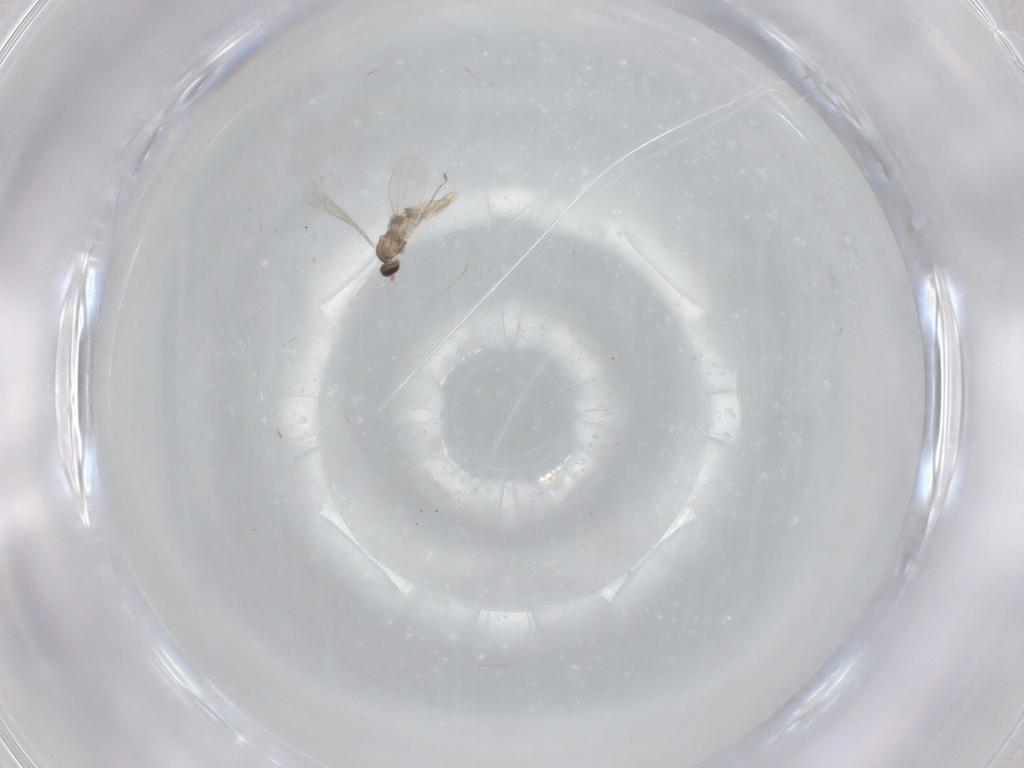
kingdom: Animalia
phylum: Arthropoda
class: Insecta
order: Diptera
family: Cecidomyiidae
